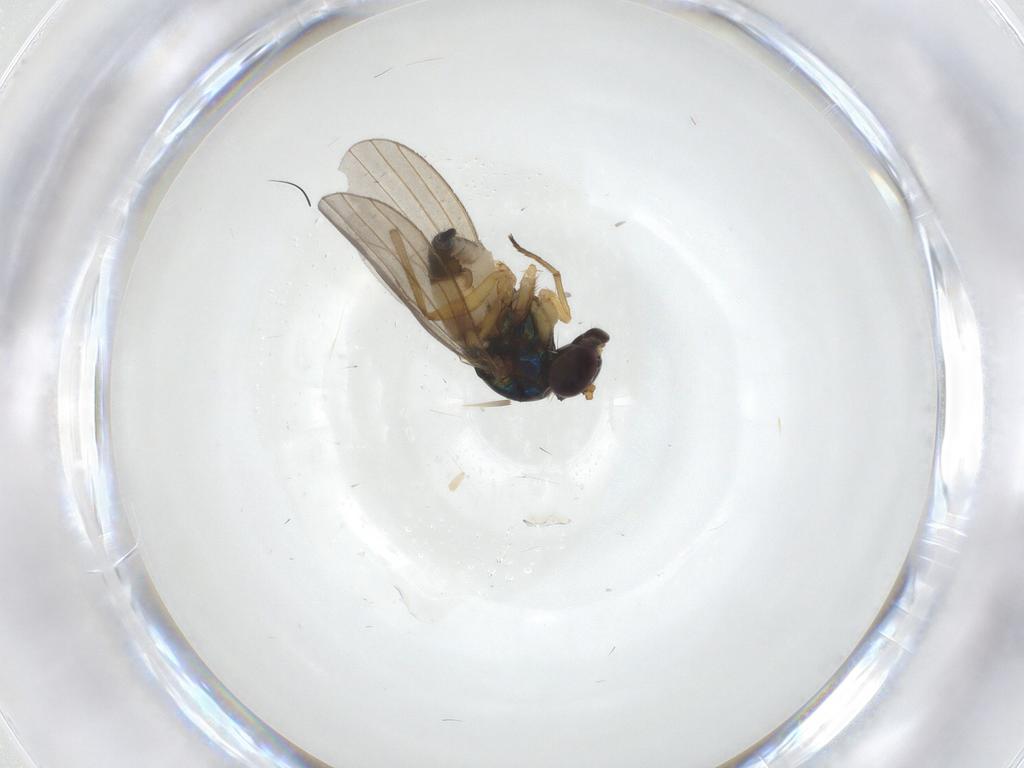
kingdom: Animalia
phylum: Arthropoda
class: Insecta
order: Diptera
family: Dolichopodidae
